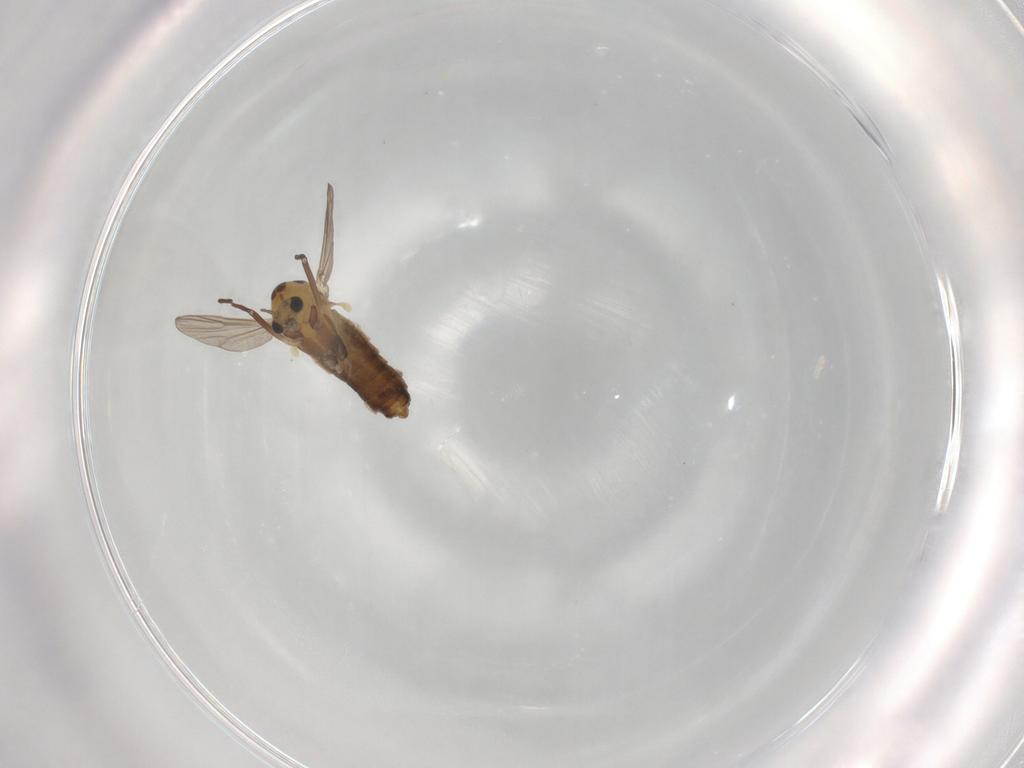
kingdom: Animalia
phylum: Arthropoda
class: Insecta
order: Diptera
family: Chironomidae
